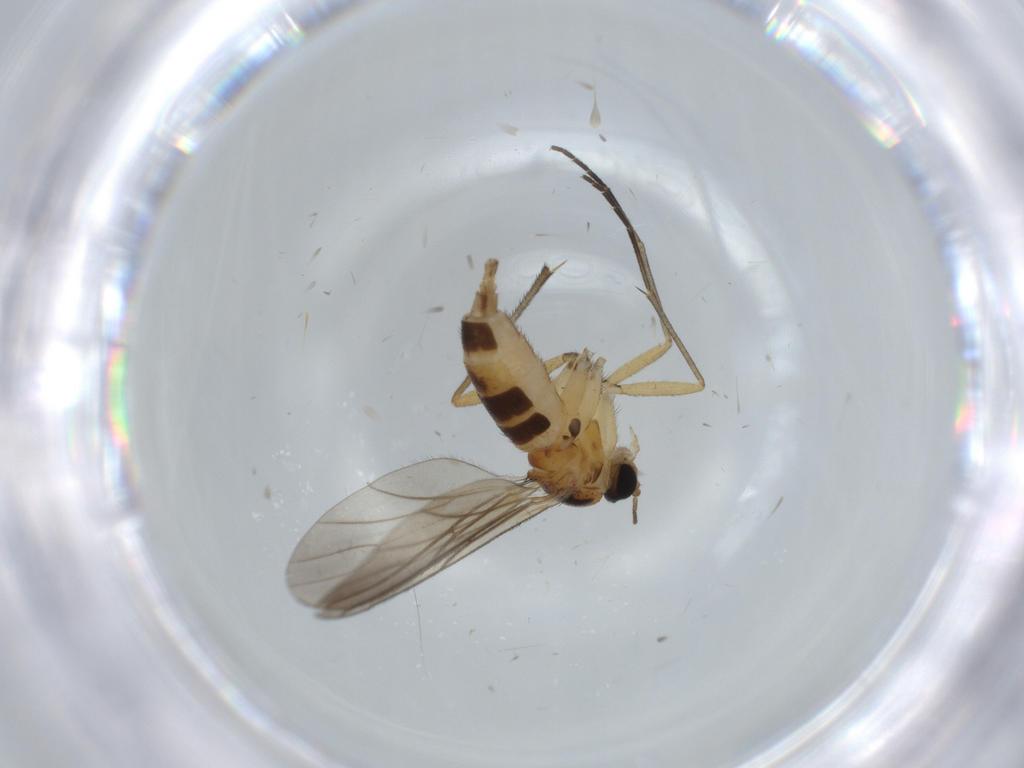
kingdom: Animalia
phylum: Arthropoda
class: Insecta
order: Diptera
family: Sciaridae
